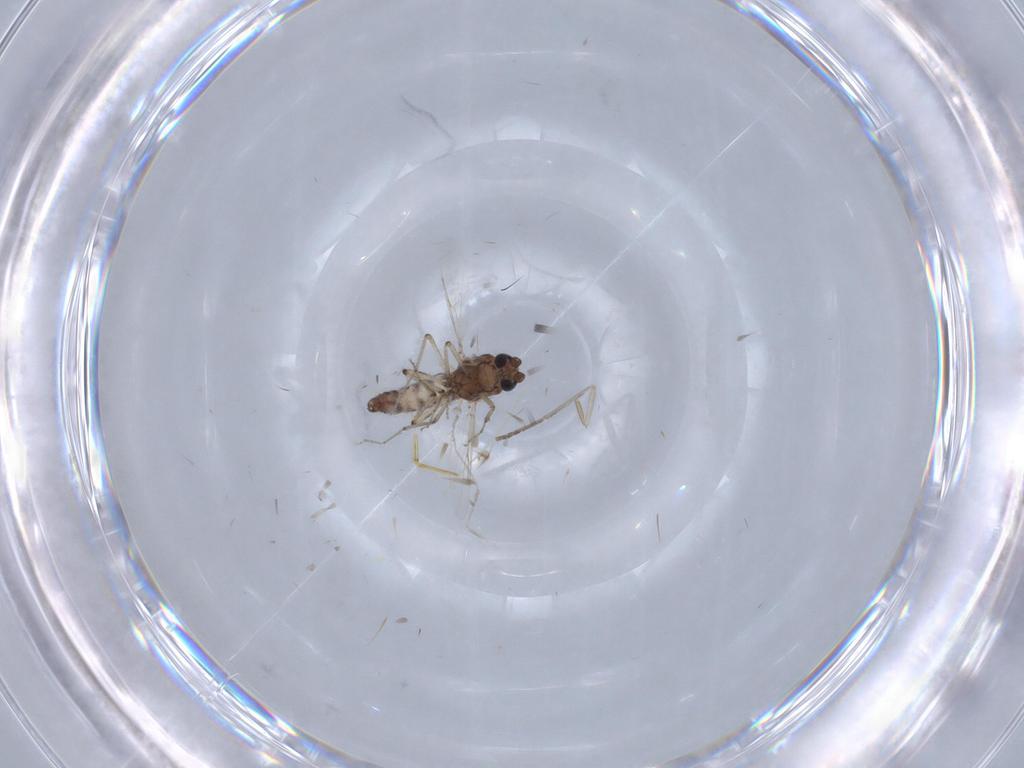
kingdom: Animalia
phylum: Arthropoda
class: Insecta
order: Diptera
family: Ceratopogonidae
